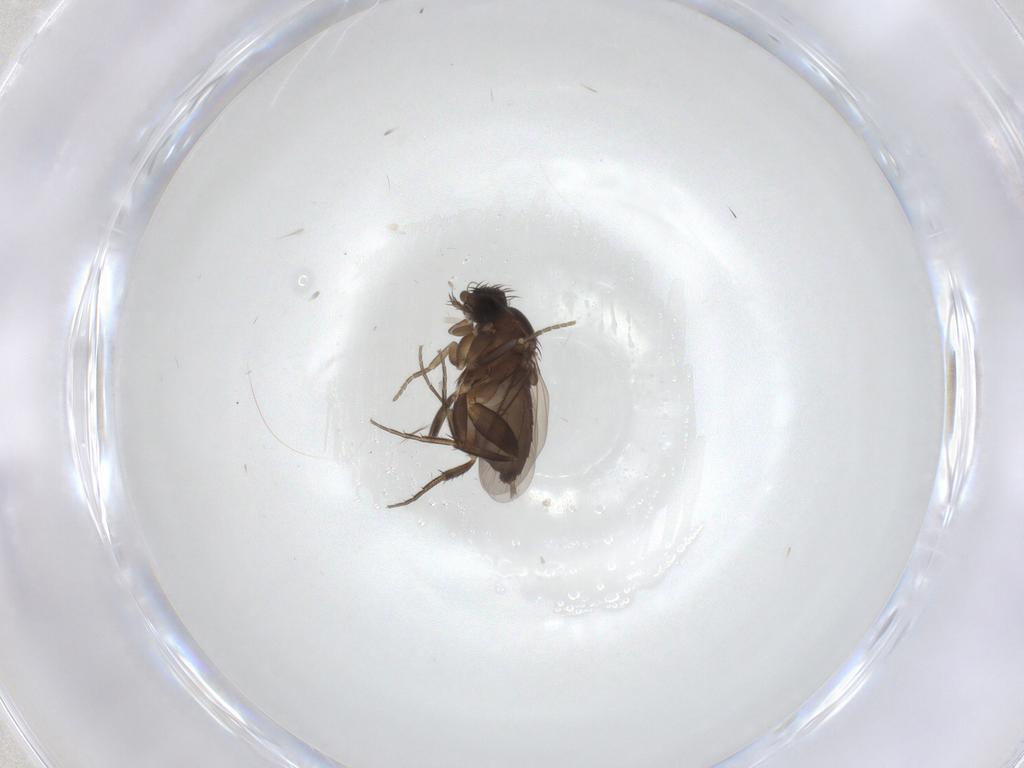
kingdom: Animalia
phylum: Arthropoda
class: Insecta
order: Diptera
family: Phoridae
